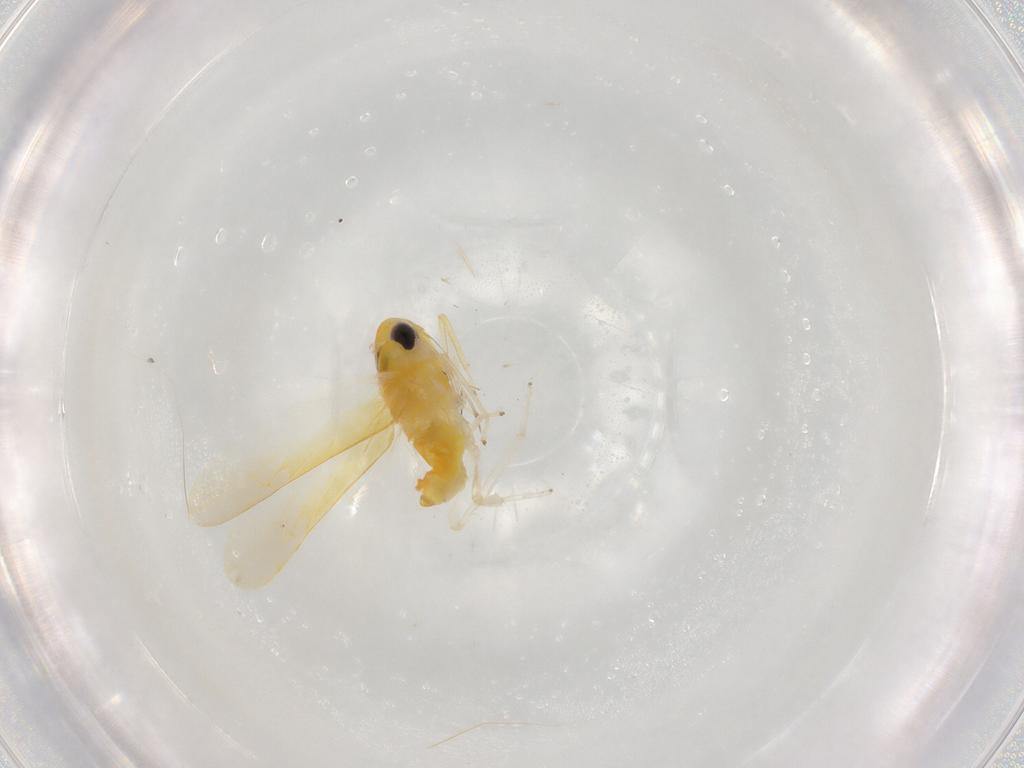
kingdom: Animalia
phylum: Arthropoda
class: Insecta
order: Hemiptera
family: Cicadellidae
